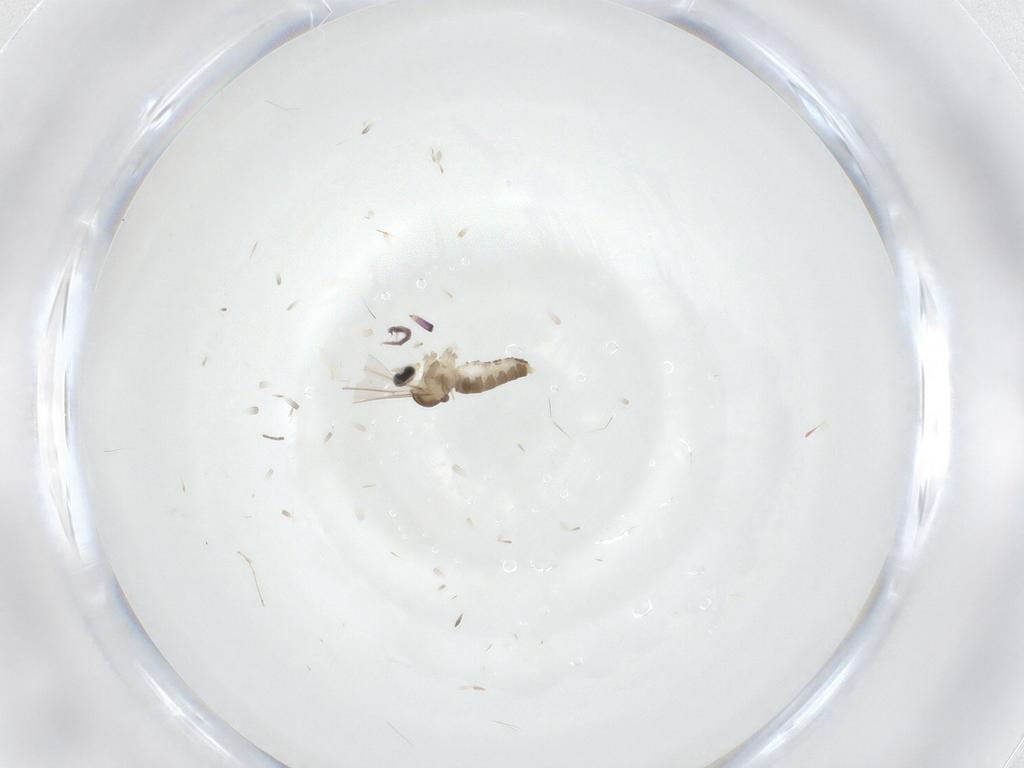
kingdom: Animalia
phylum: Arthropoda
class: Insecta
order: Diptera
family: Cecidomyiidae
